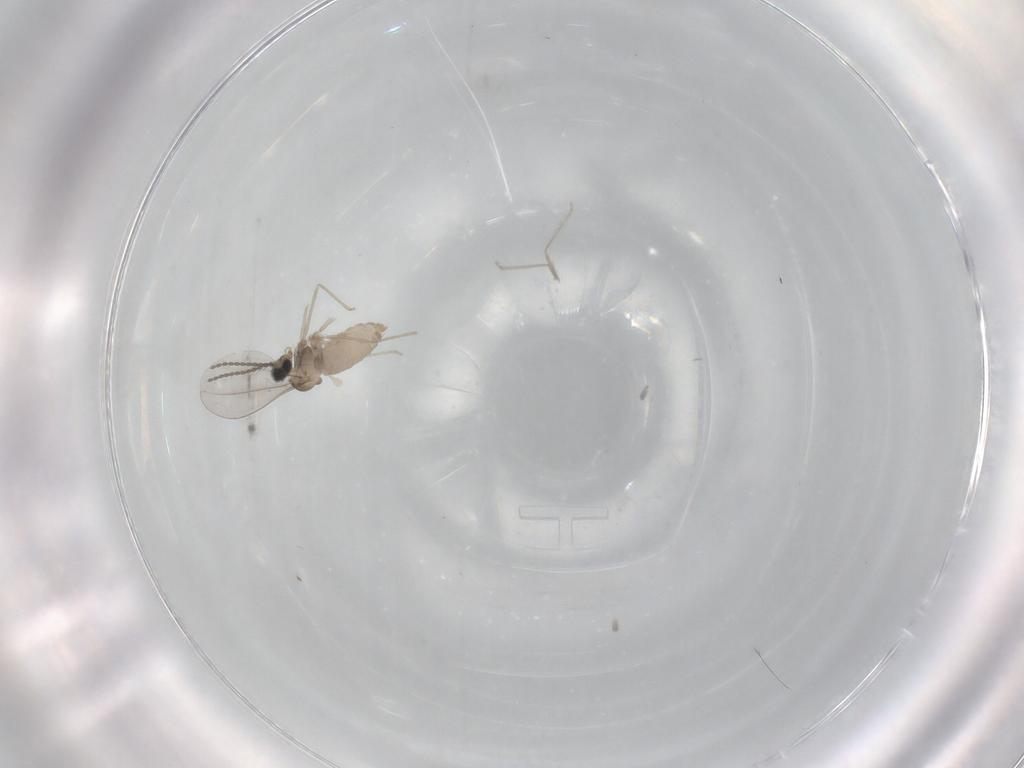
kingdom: Animalia
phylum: Arthropoda
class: Insecta
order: Diptera
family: Cecidomyiidae
